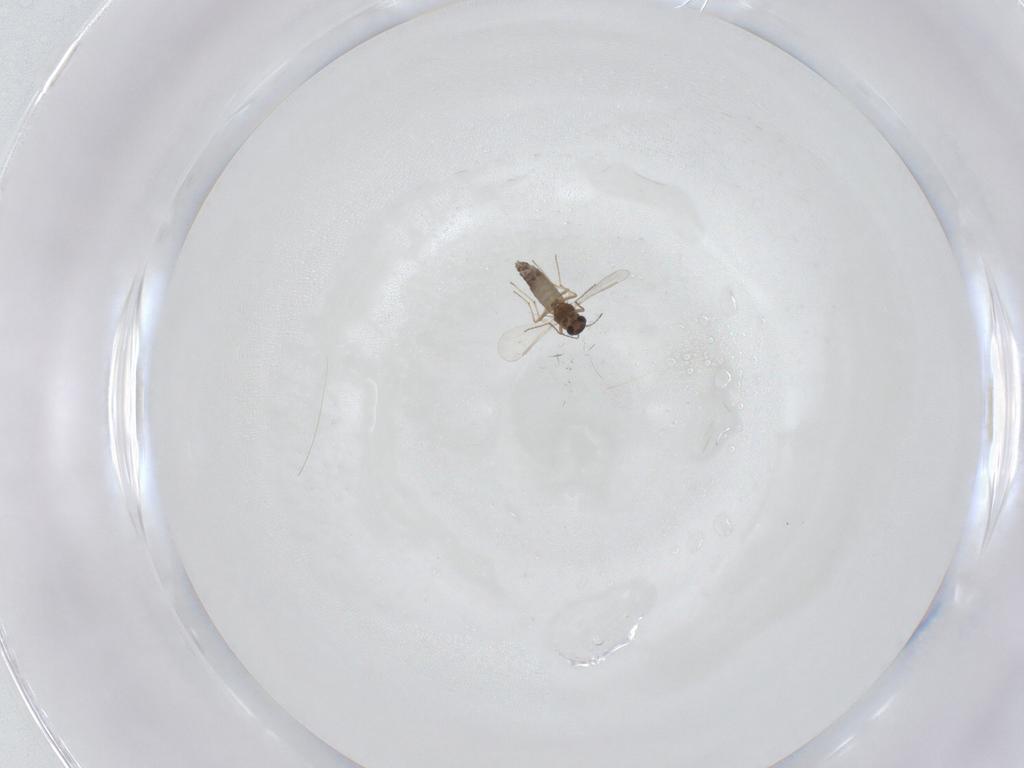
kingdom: Animalia
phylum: Arthropoda
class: Insecta
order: Diptera
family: Chironomidae
